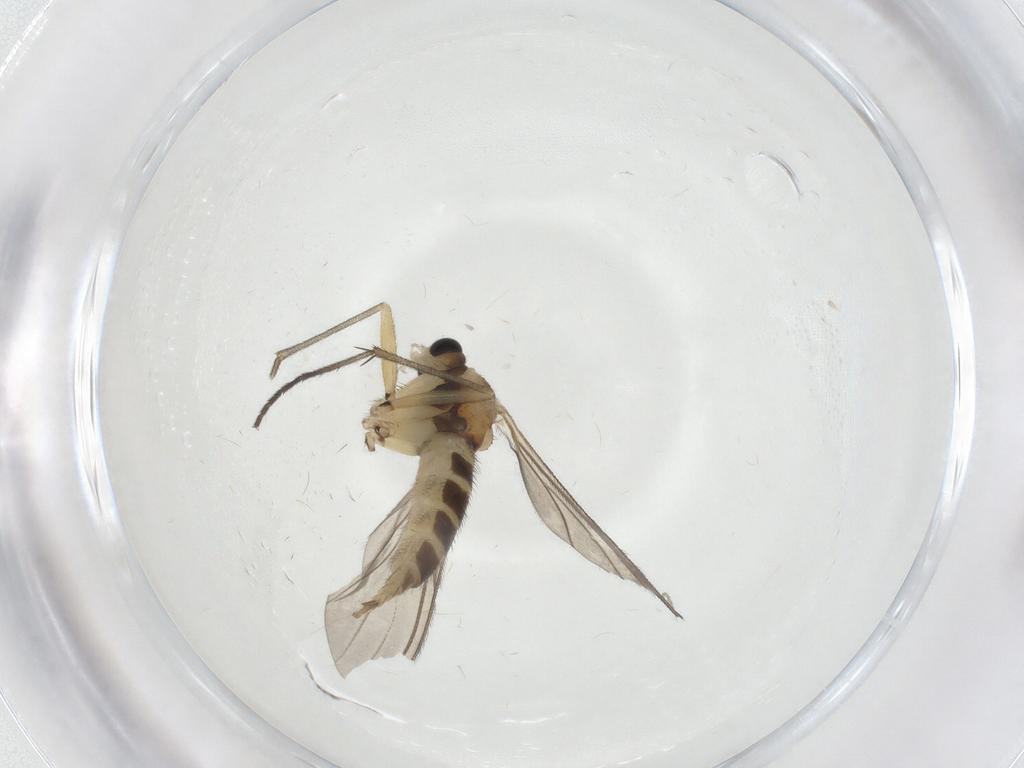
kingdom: Animalia
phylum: Arthropoda
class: Insecta
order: Diptera
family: Sciaridae
